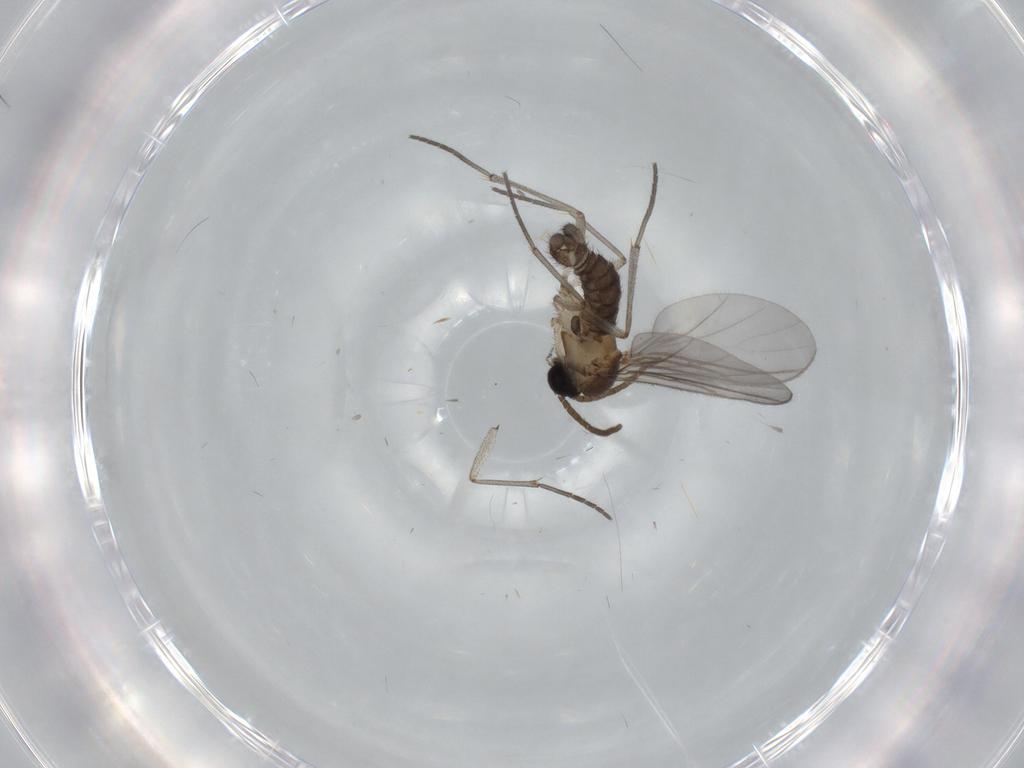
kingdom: Animalia
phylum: Arthropoda
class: Insecta
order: Diptera
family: Sciaridae
